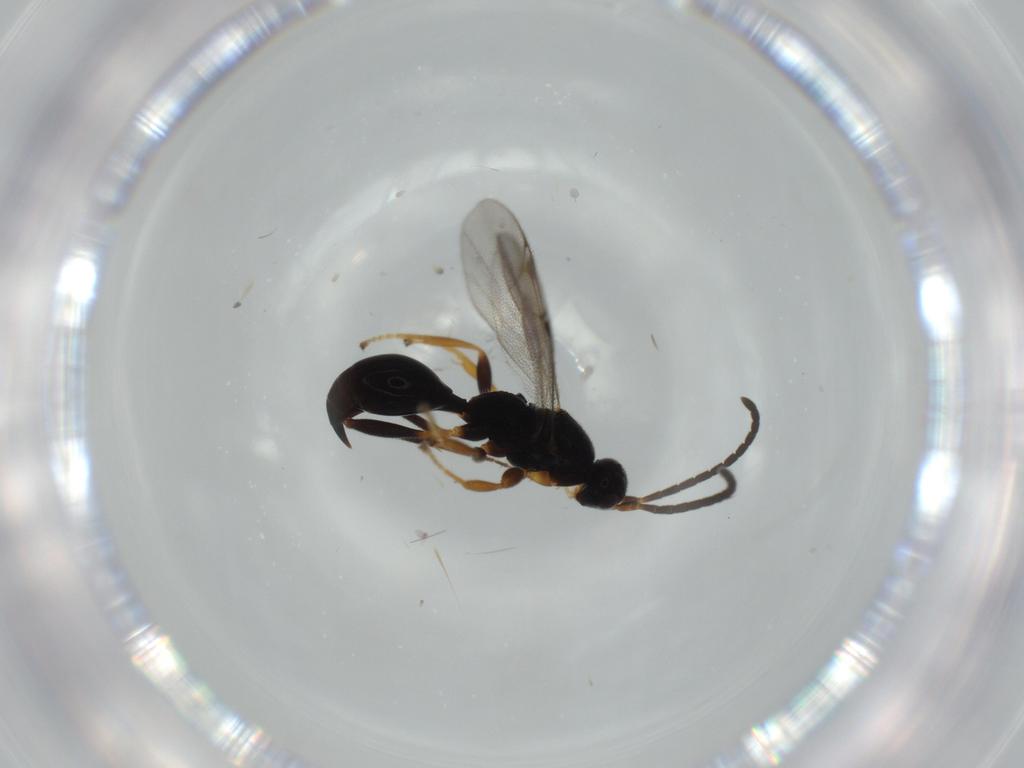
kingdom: Animalia
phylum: Arthropoda
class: Insecta
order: Hymenoptera
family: Proctotrupidae
